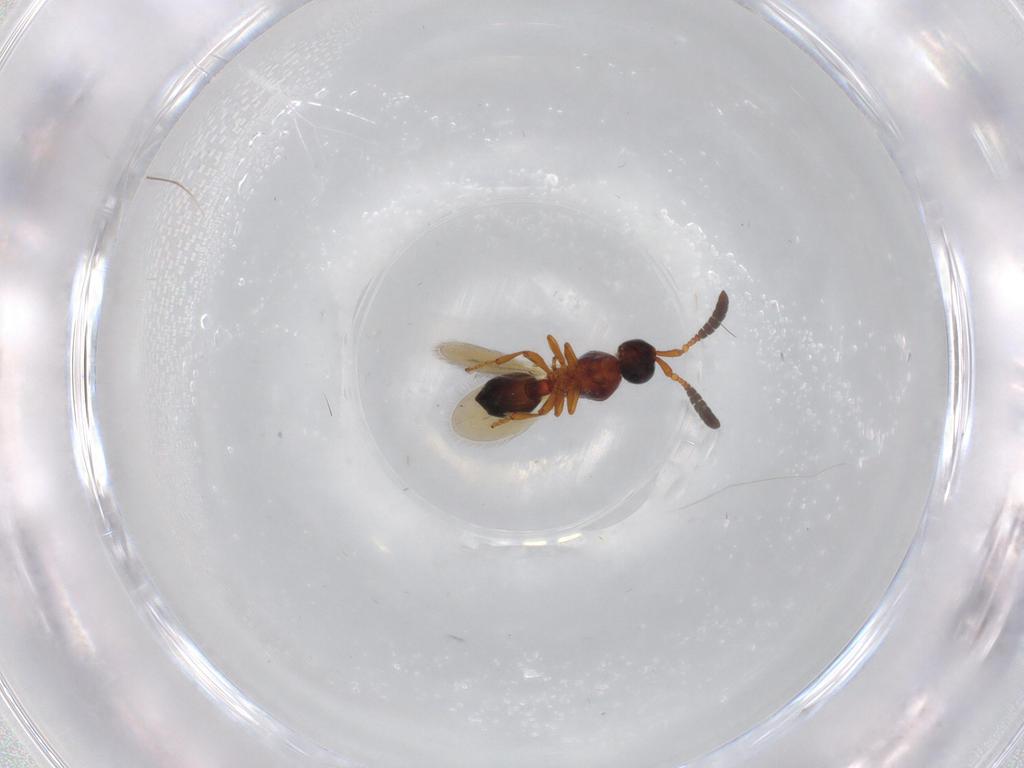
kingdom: Animalia
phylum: Arthropoda
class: Insecta
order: Hymenoptera
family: Diapriidae
